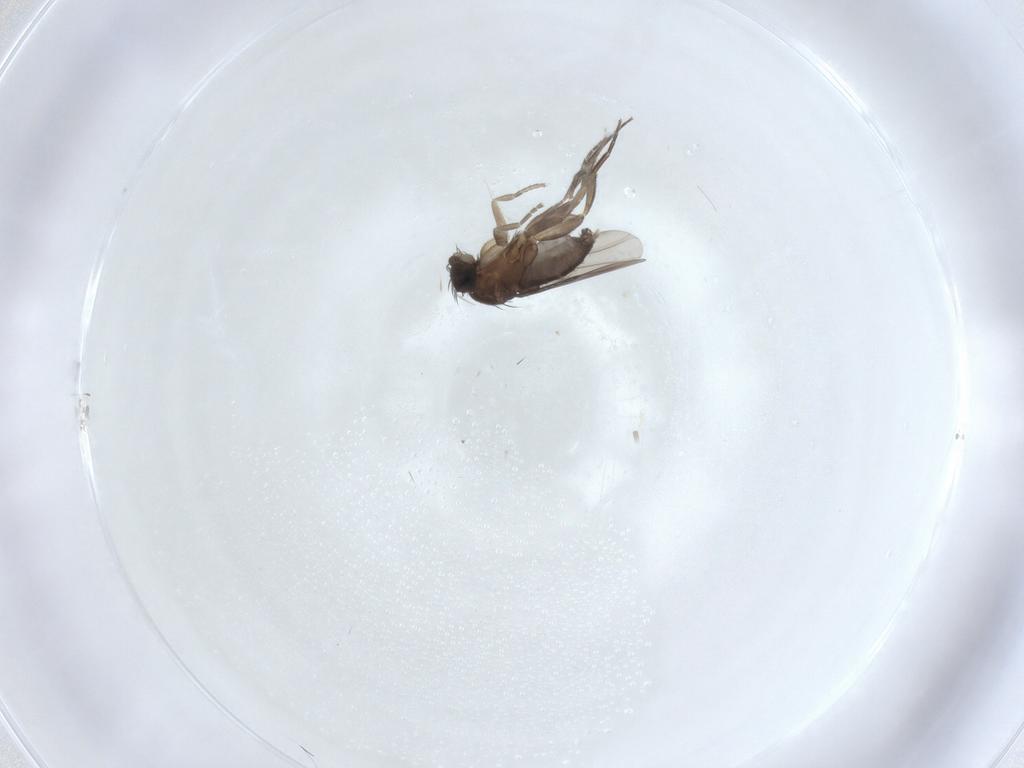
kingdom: Animalia
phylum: Arthropoda
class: Insecta
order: Diptera
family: Phoridae
